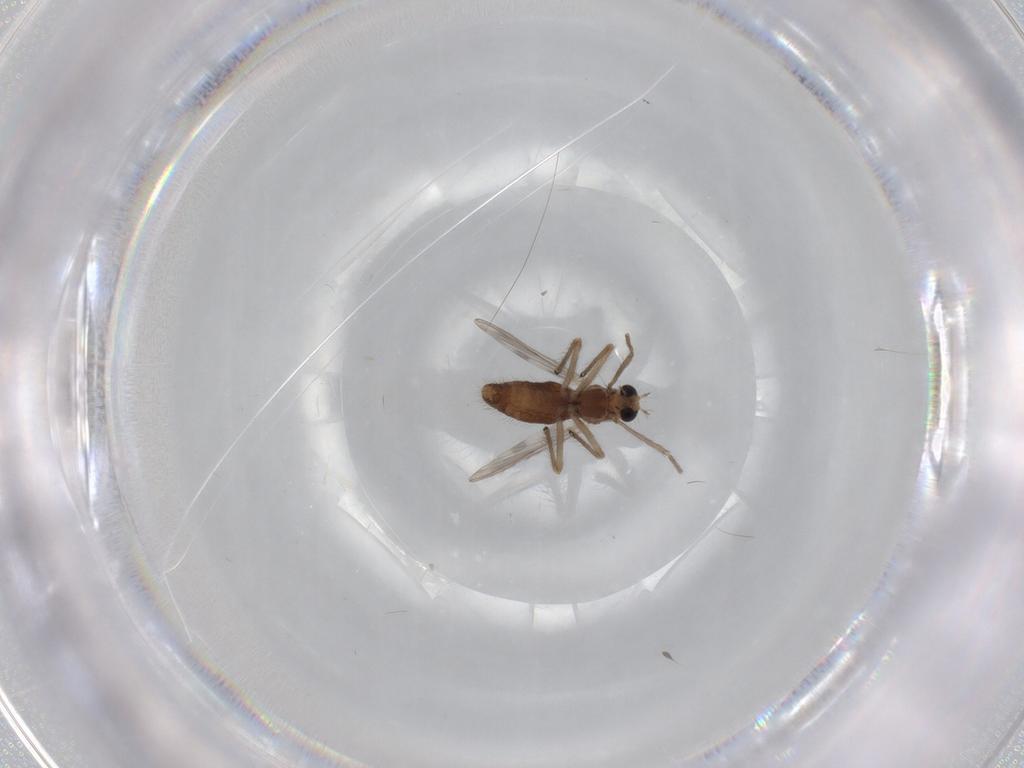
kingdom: Animalia
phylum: Arthropoda
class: Insecta
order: Diptera
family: Chironomidae
